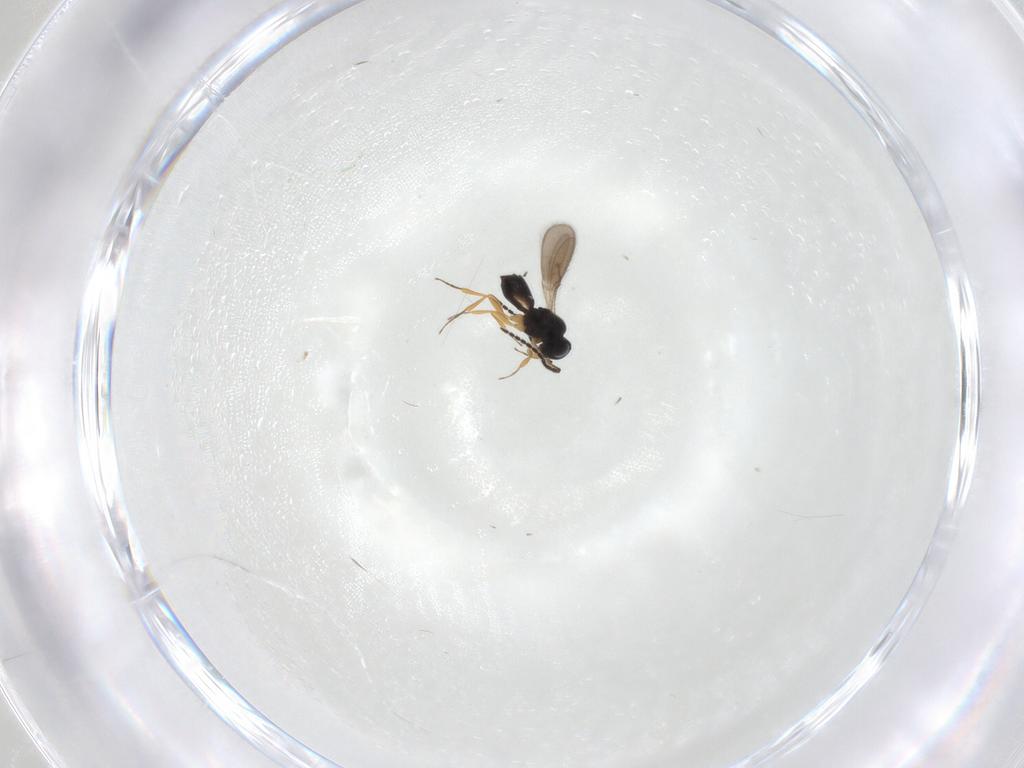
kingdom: Animalia
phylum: Arthropoda
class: Insecta
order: Hymenoptera
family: Scelionidae
